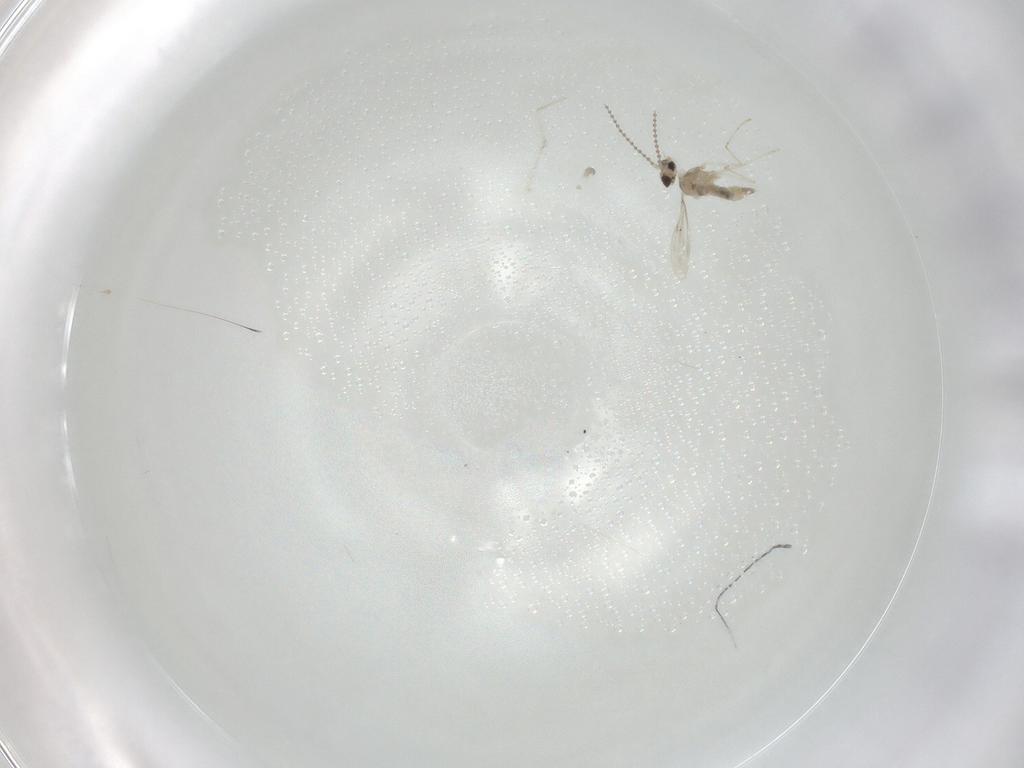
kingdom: Animalia
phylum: Arthropoda
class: Insecta
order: Diptera
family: Cecidomyiidae
